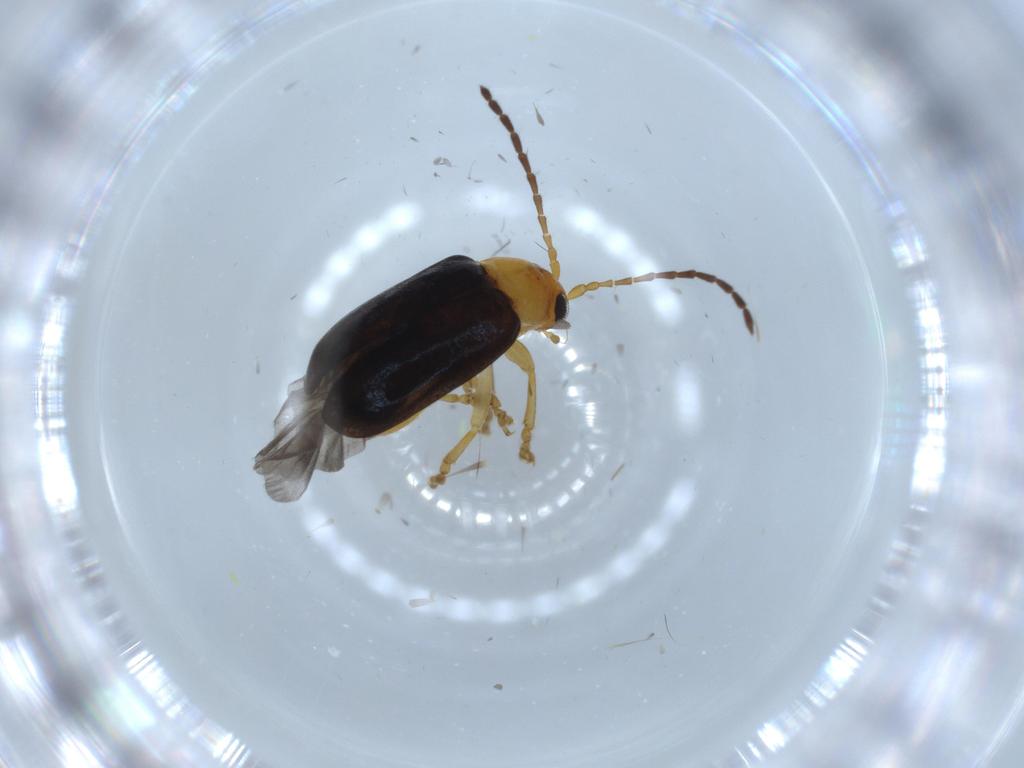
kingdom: Animalia
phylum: Arthropoda
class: Insecta
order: Coleoptera
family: Chrysomelidae
